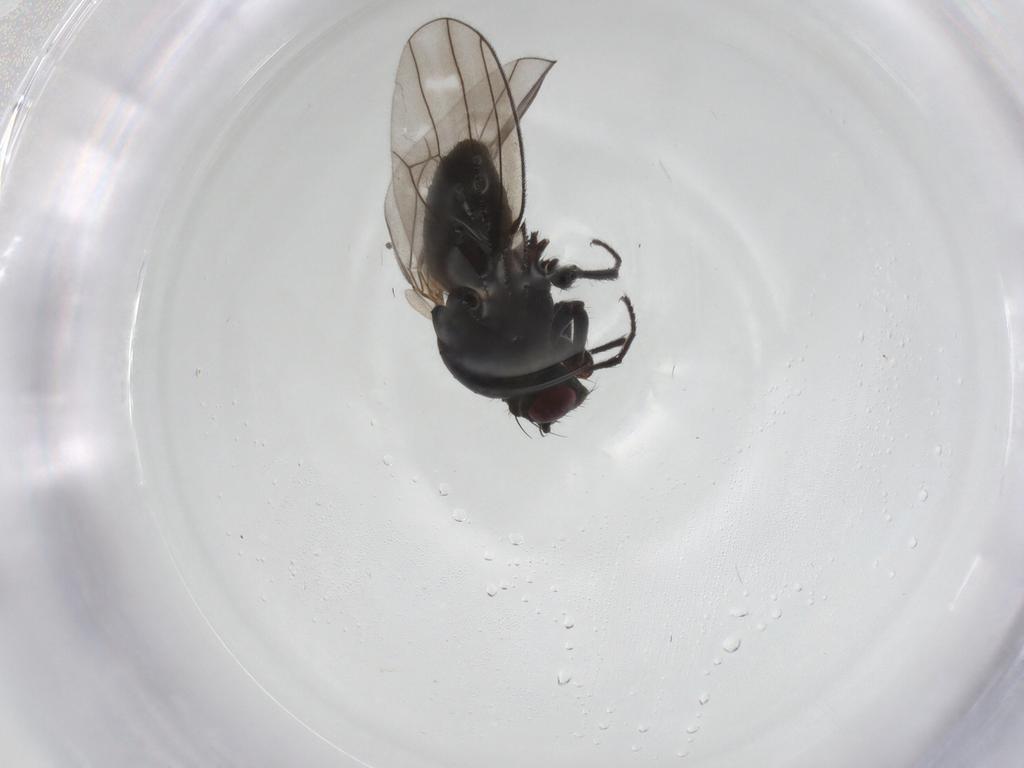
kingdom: Animalia
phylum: Arthropoda
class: Insecta
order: Diptera
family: Ephydridae
